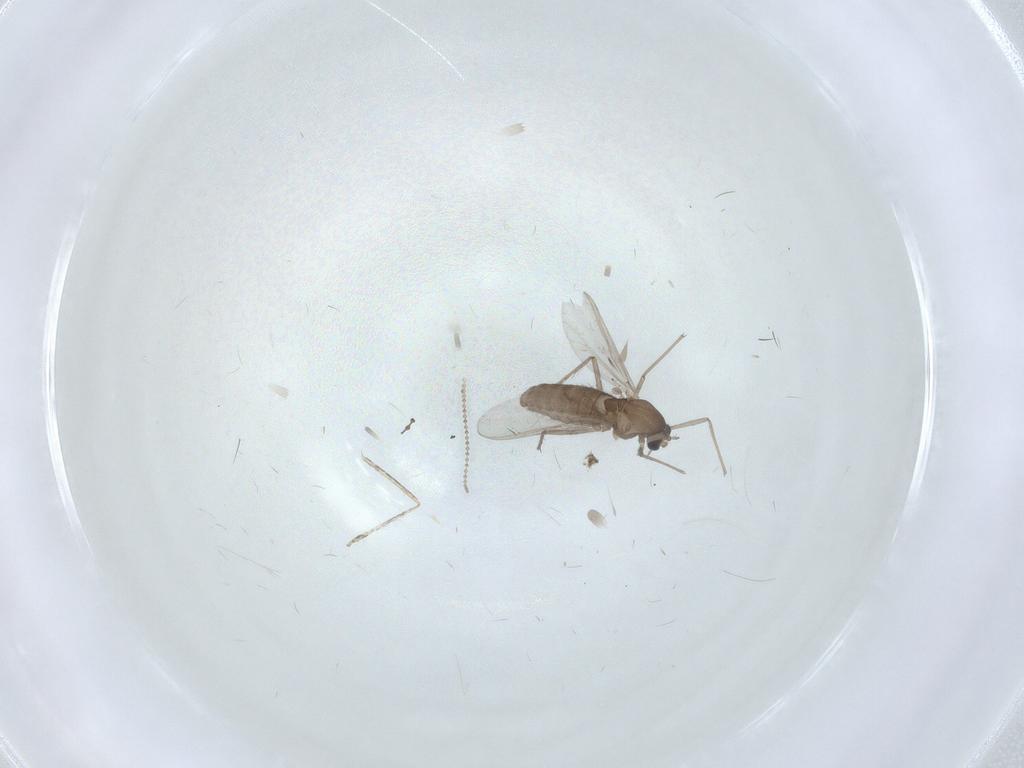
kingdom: Animalia
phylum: Arthropoda
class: Insecta
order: Diptera
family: Chironomidae
